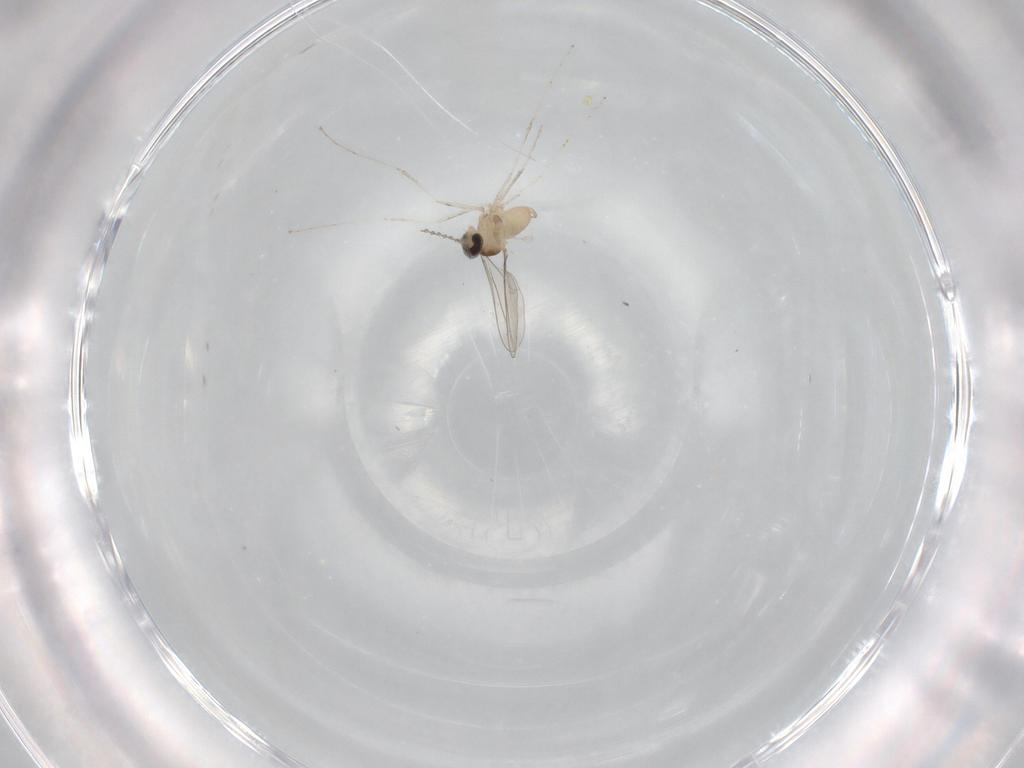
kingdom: Animalia
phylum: Arthropoda
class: Insecta
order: Diptera
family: Cecidomyiidae
